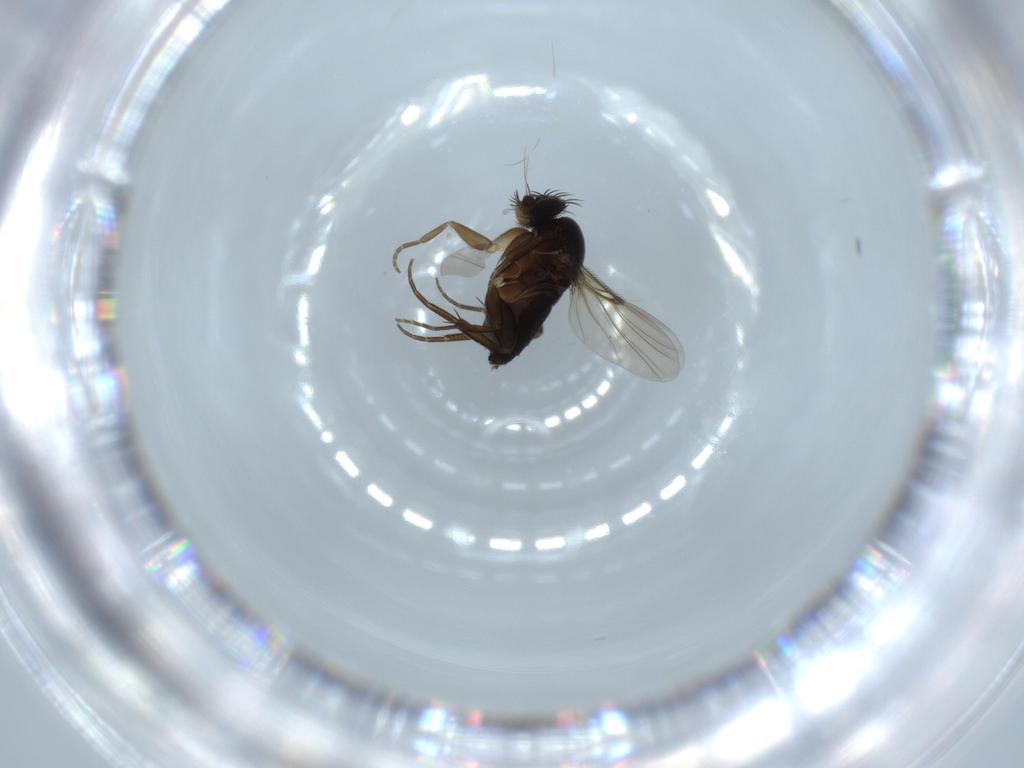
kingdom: Animalia
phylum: Arthropoda
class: Insecta
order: Diptera
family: Phoridae
